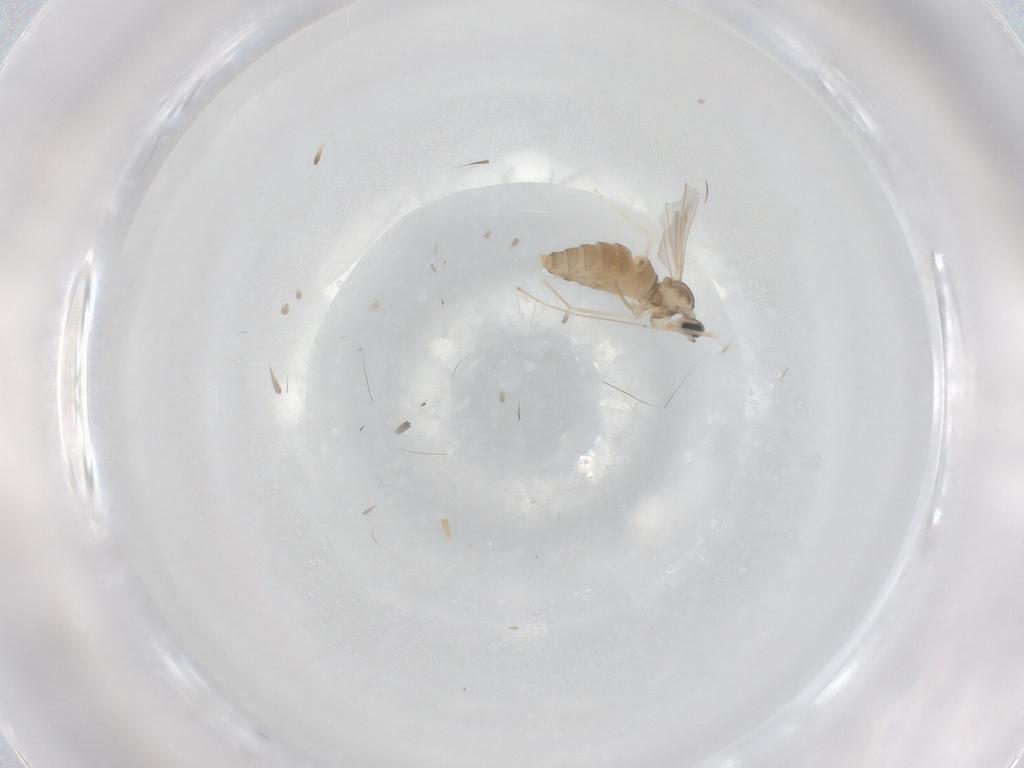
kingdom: Animalia
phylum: Arthropoda
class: Insecta
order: Diptera
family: Cecidomyiidae
